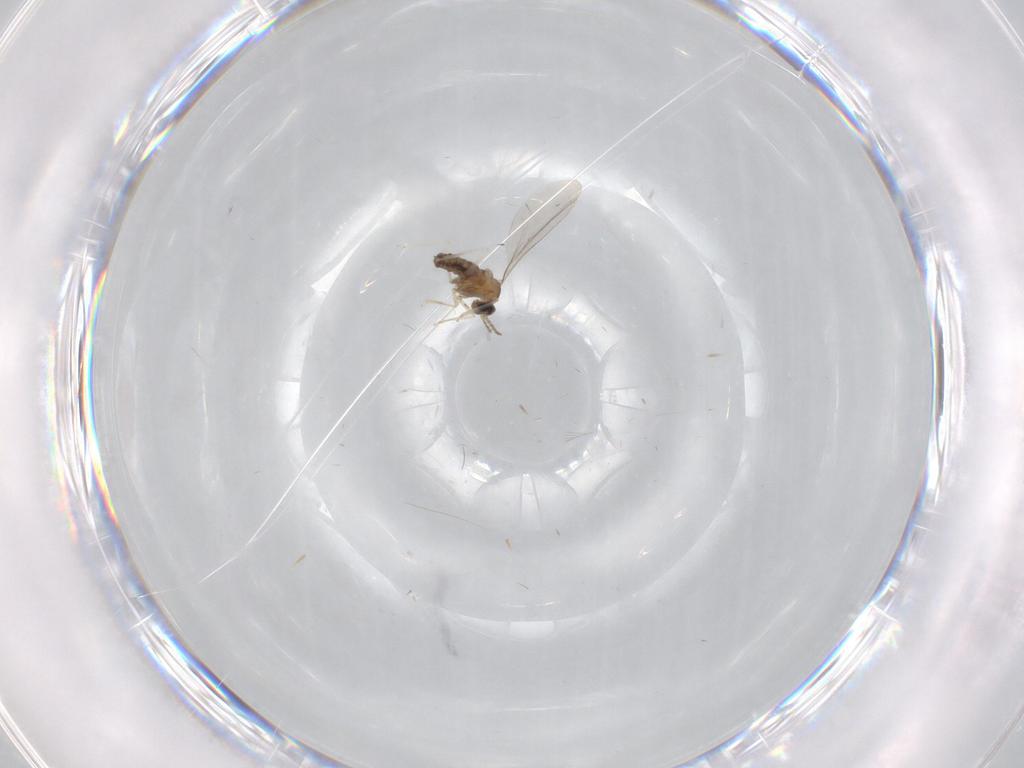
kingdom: Animalia
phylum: Arthropoda
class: Insecta
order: Diptera
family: Cecidomyiidae
